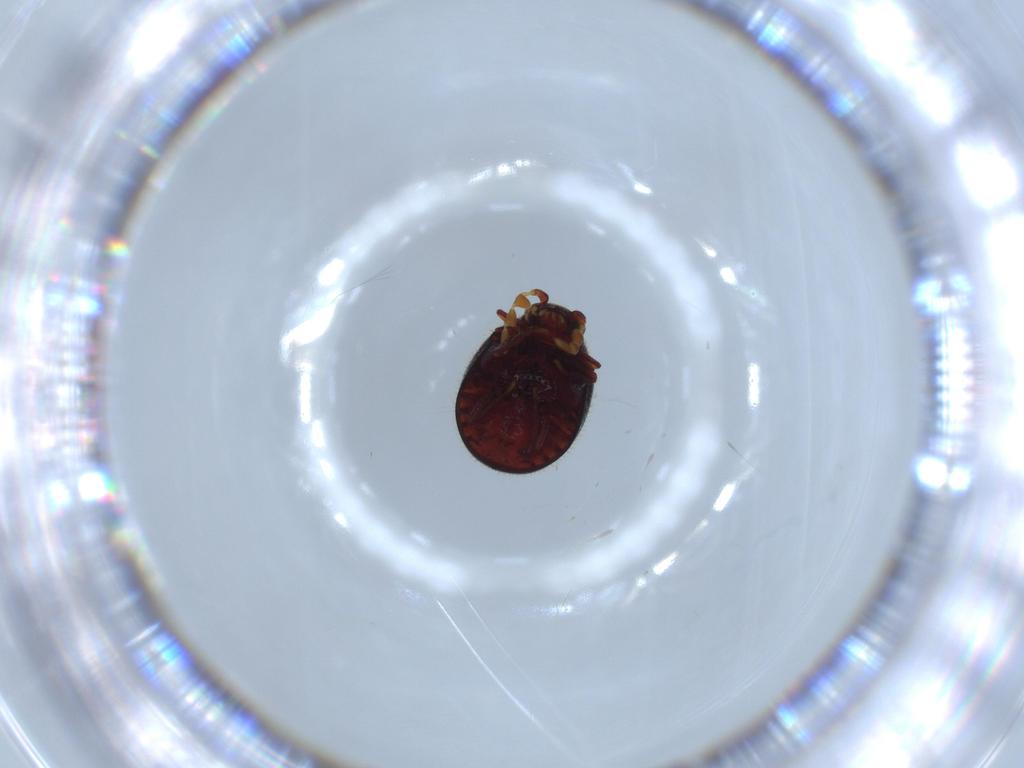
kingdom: Animalia
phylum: Arthropoda
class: Insecta
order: Coleoptera
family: Ptinidae
